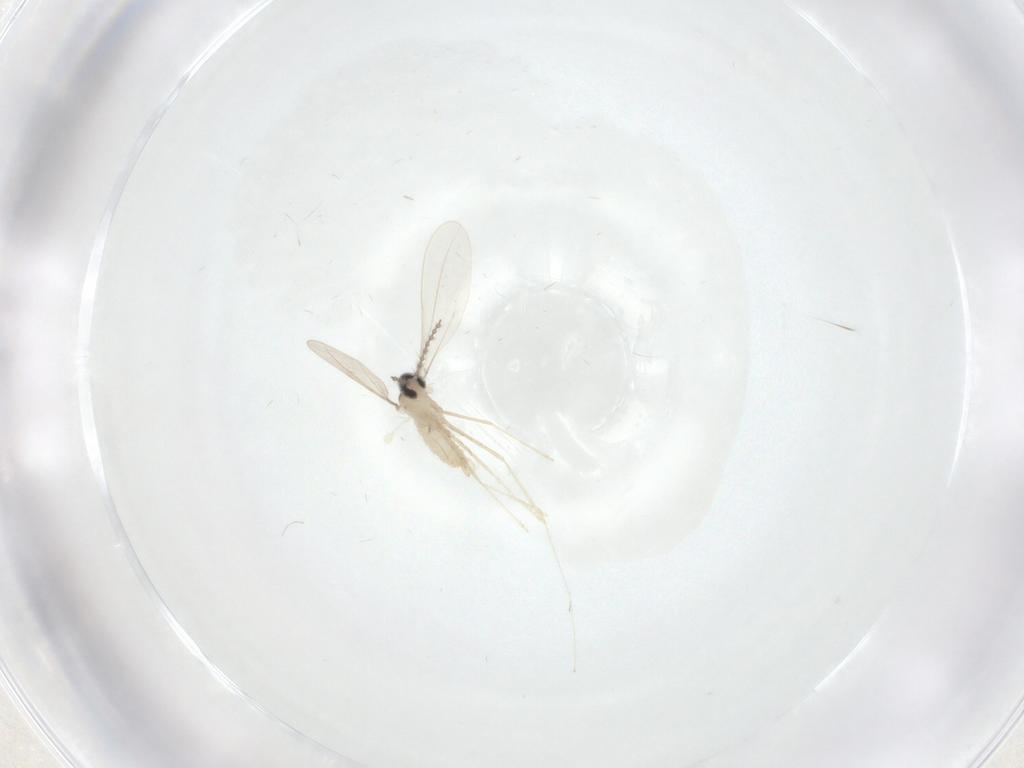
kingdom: Animalia
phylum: Arthropoda
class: Insecta
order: Diptera
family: Cecidomyiidae
